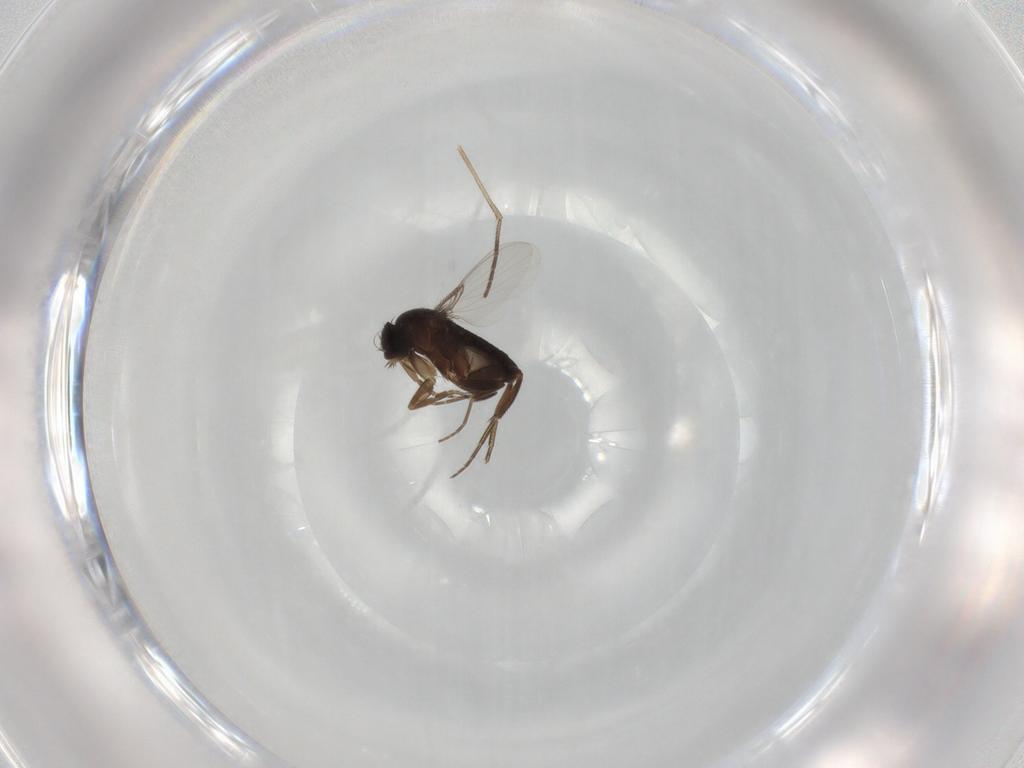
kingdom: Animalia
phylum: Arthropoda
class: Insecta
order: Diptera
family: Phoridae
